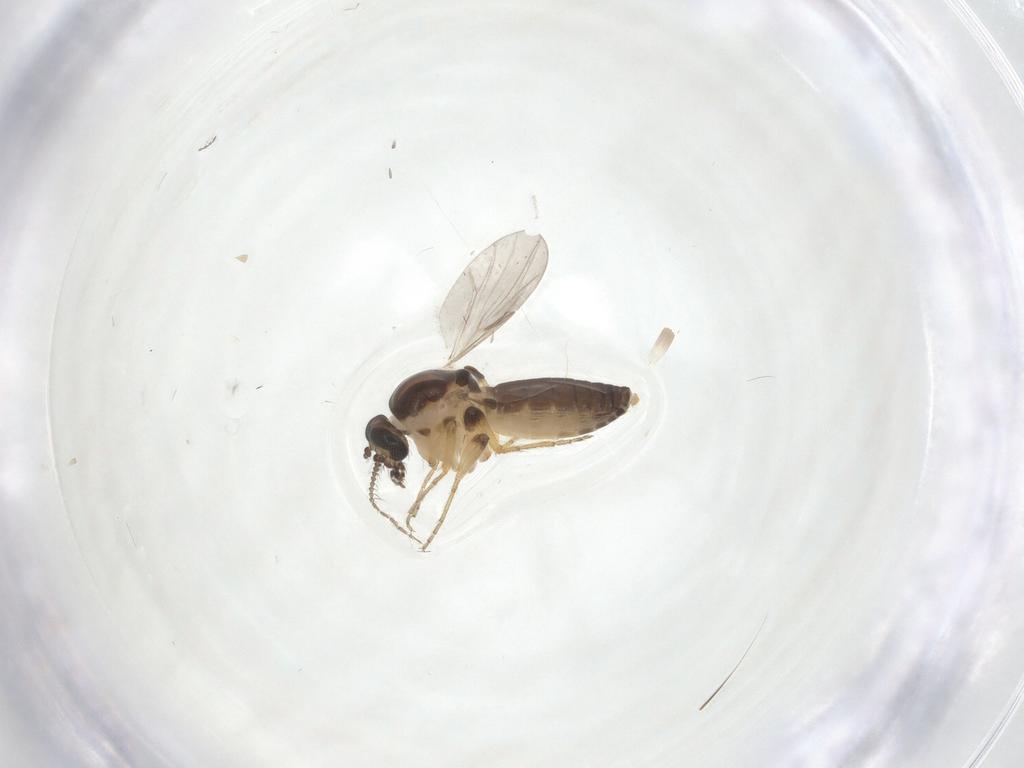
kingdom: Animalia
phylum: Arthropoda
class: Insecta
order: Diptera
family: Ceratopogonidae
